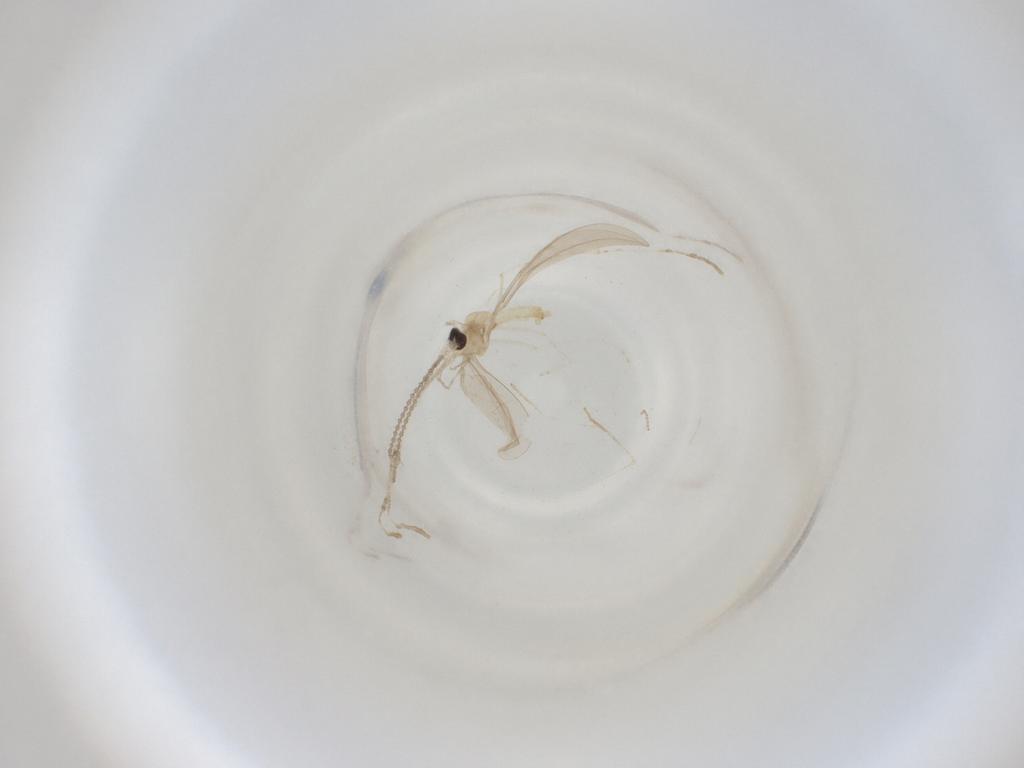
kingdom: Animalia
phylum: Arthropoda
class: Insecta
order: Diptera
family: Cecidomyiidae
